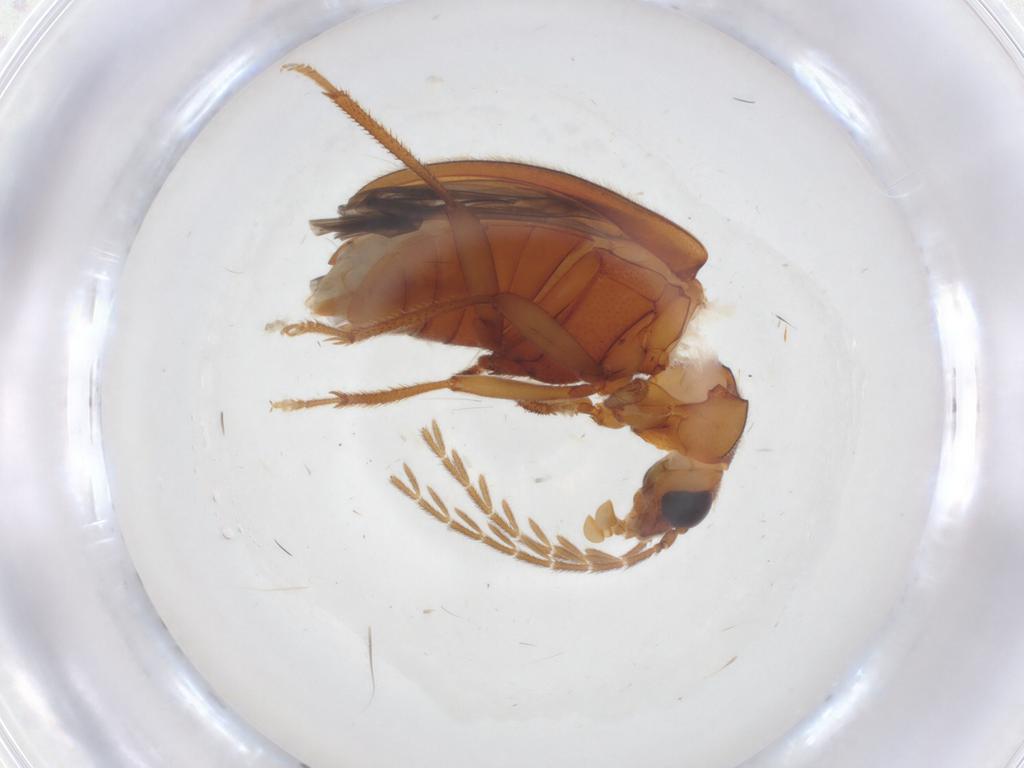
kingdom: Animalia
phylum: Arthropoda
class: Insecta
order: Coleoptera
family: Ptilodactylidae
